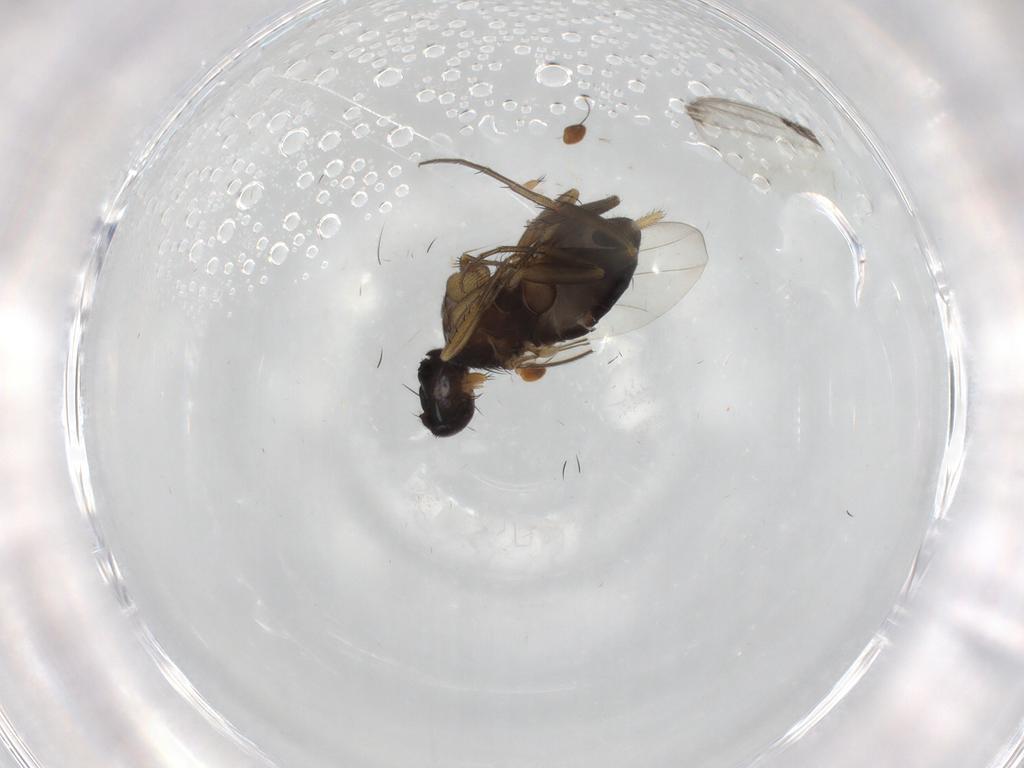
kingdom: Animalia
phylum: Arthropoda
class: Insecta
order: Diptera
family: Phoridae
